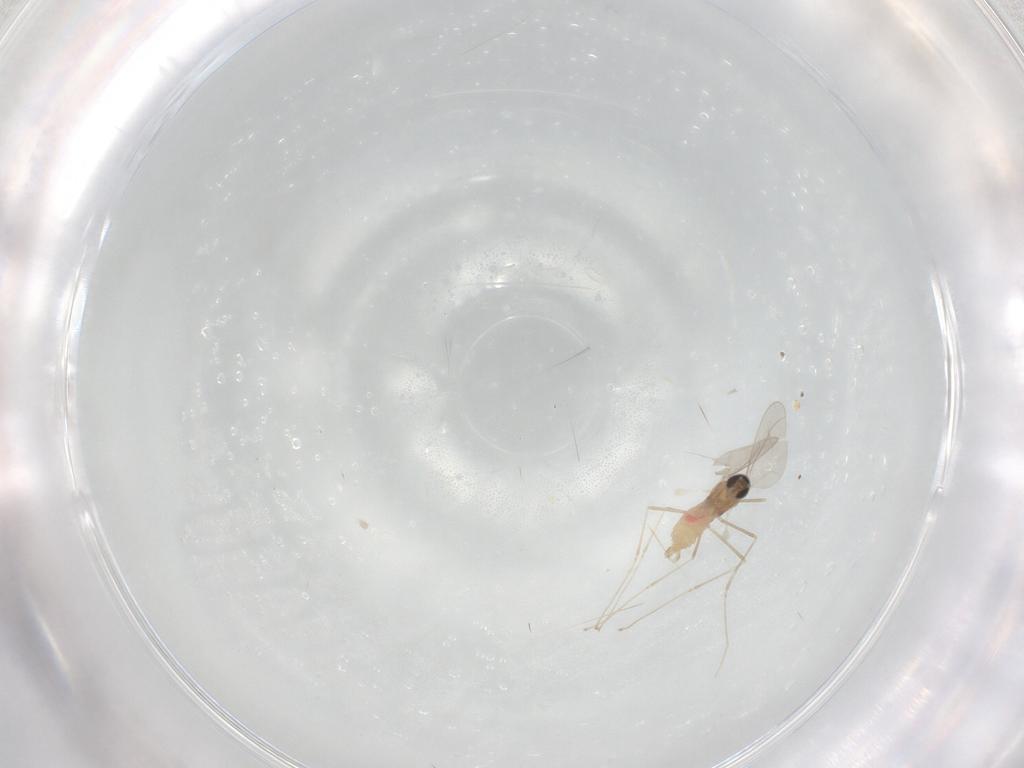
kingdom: Animalia
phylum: Arthropoda
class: Insecta
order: Diptera
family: Cecidomyiidae
